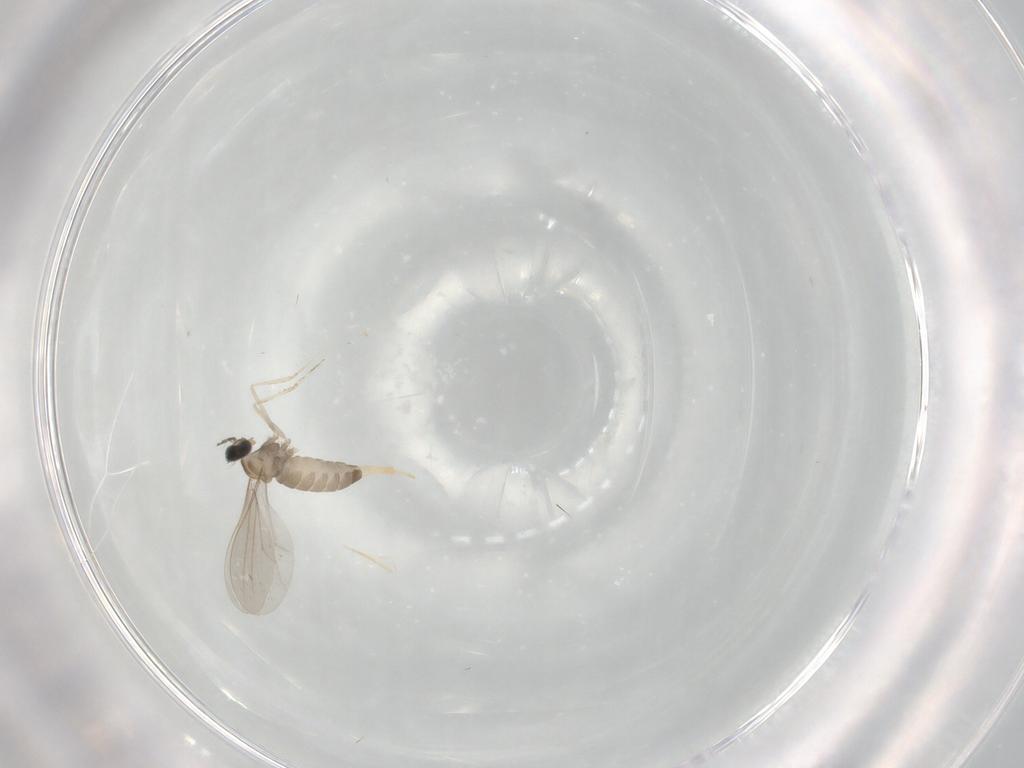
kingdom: Animalia
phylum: Arthropoda
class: Insecta
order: Diptera
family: Cecidomyiidae
